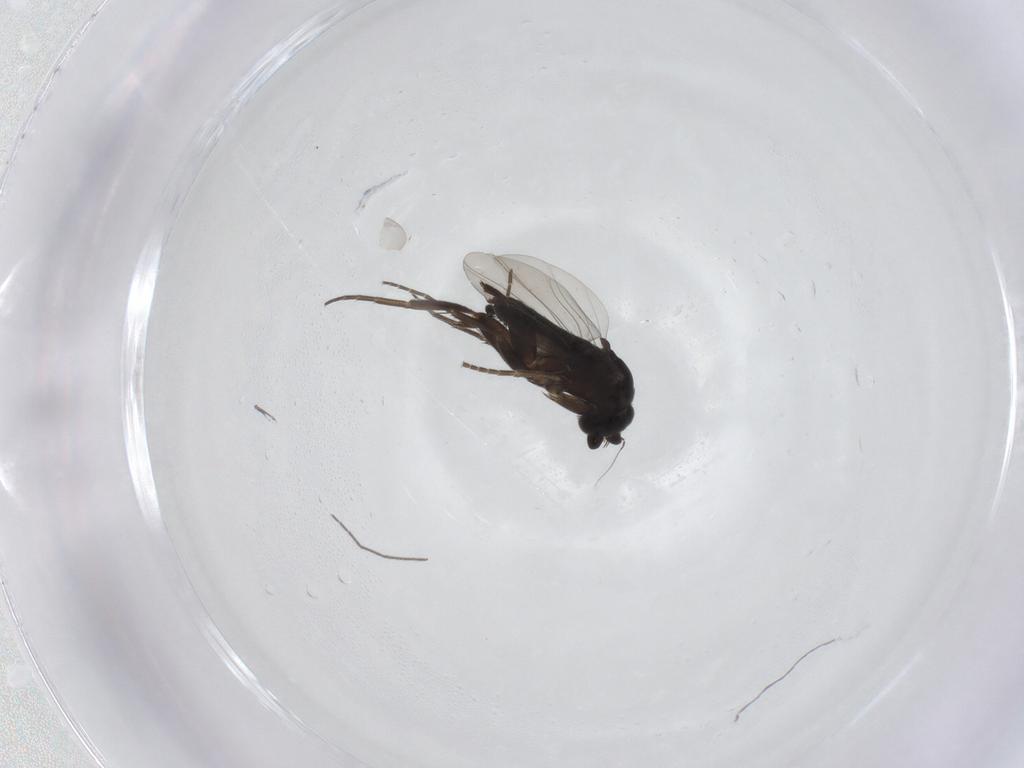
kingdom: Animalia
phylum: Arthropoda
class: Insecta
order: Diptera
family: Phoridae
